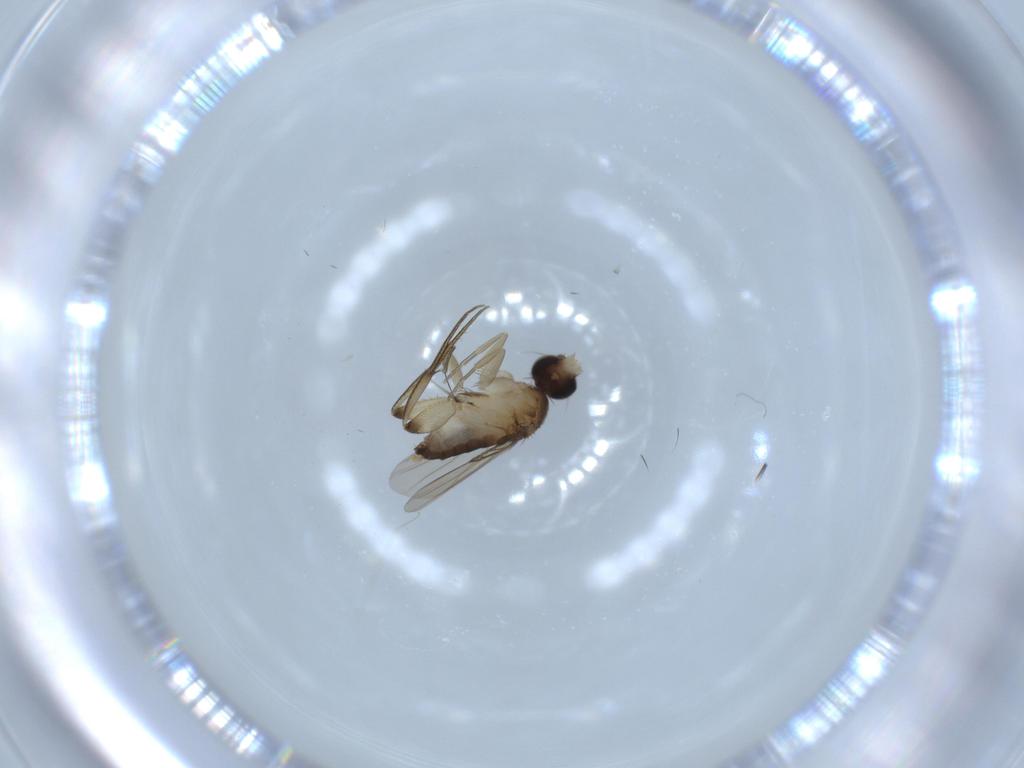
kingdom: Animalia
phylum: Arthropoda
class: Insecta
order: Diptera
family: Phoridae
